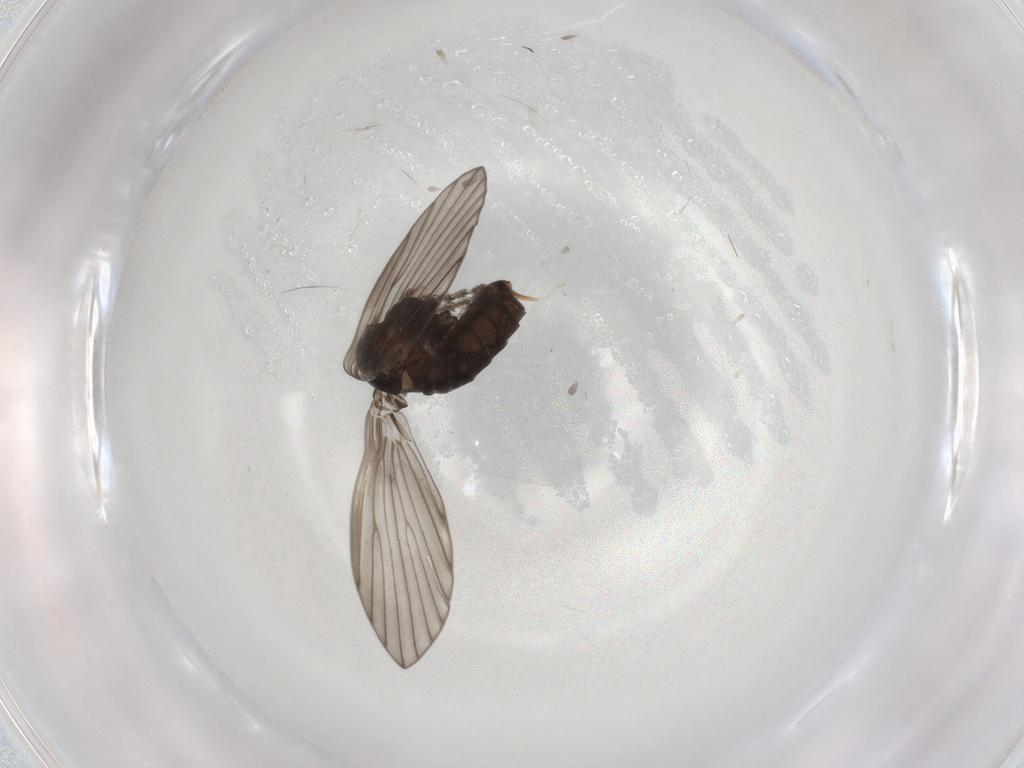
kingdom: Animalia
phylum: Arthropoda
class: Insecta
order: Diptera
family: Psychodidae
